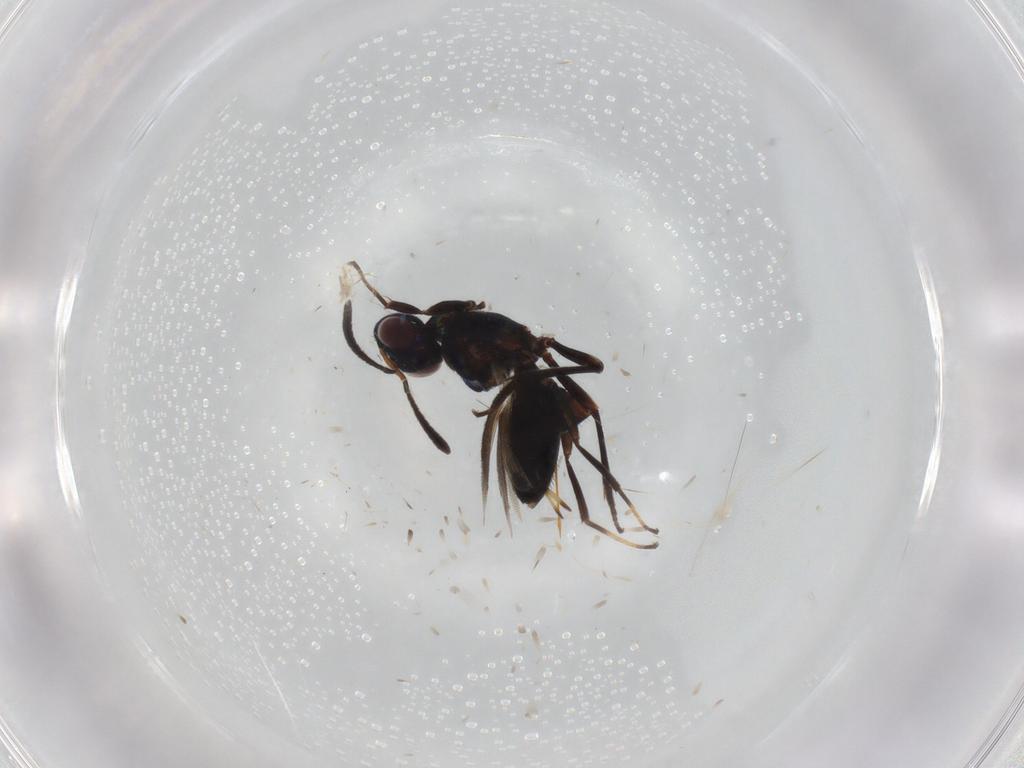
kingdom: Animalia
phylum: Arthropoda
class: Insecta
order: Hymenoptera
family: Eupelmidae
